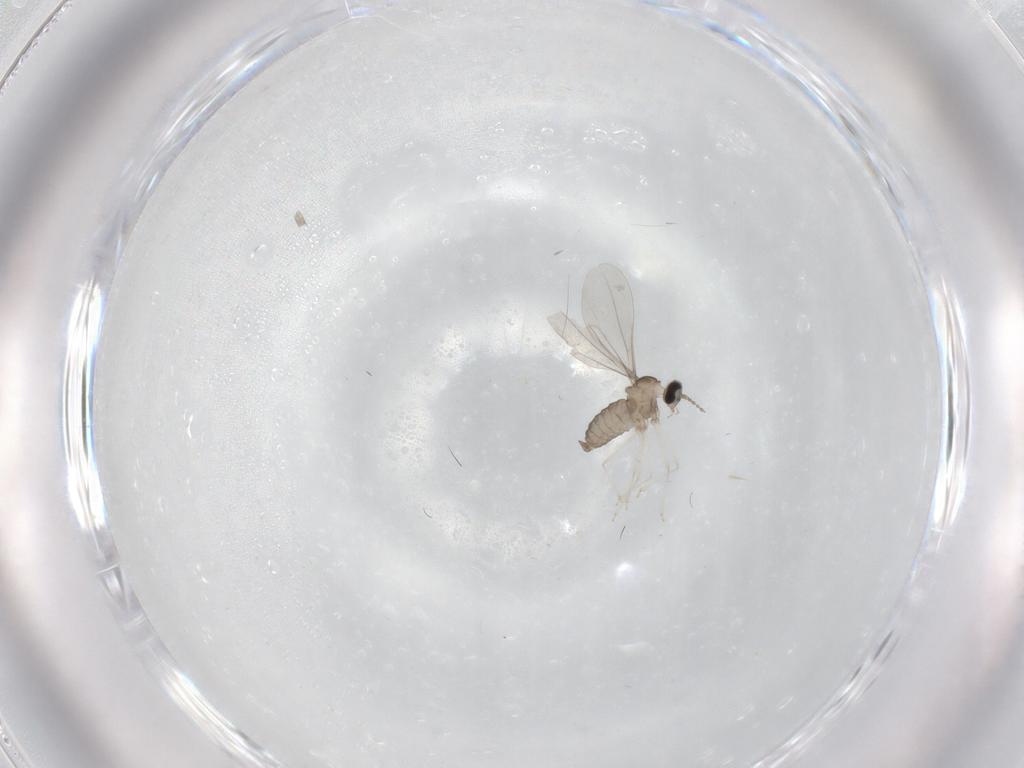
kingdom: Animalia
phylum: Arthropoda
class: Insecta
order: Diptera
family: Cecidomyiidae
